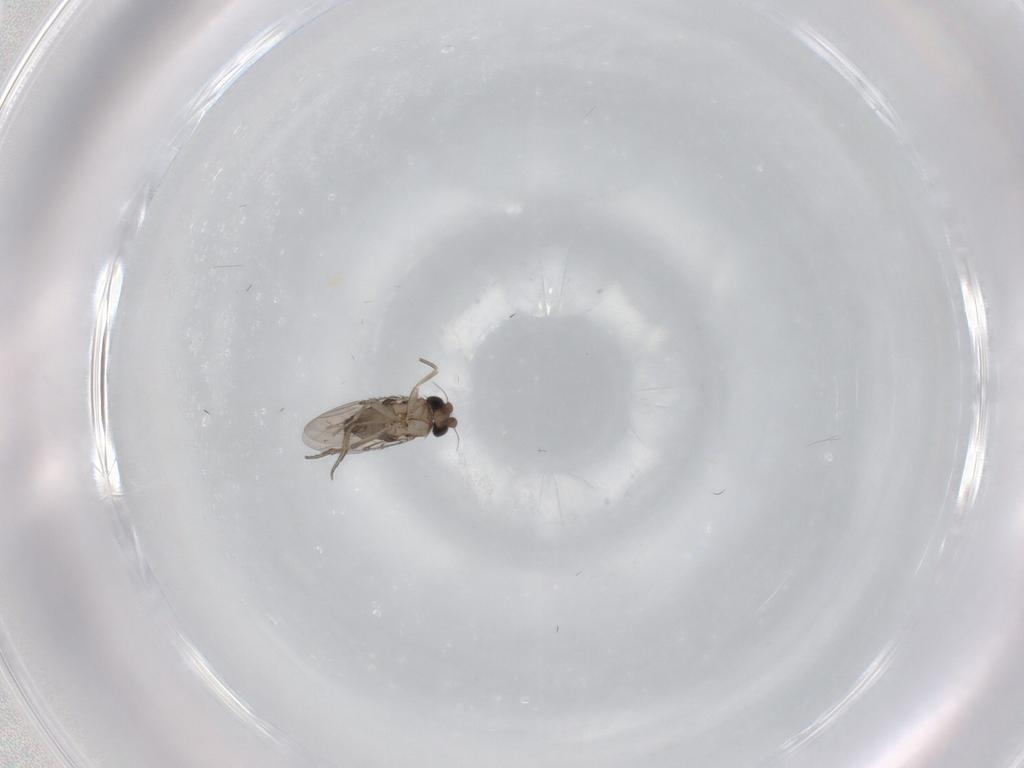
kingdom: Animalia
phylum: Arthropoda
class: Insecta
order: Diptera
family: Phoridae
